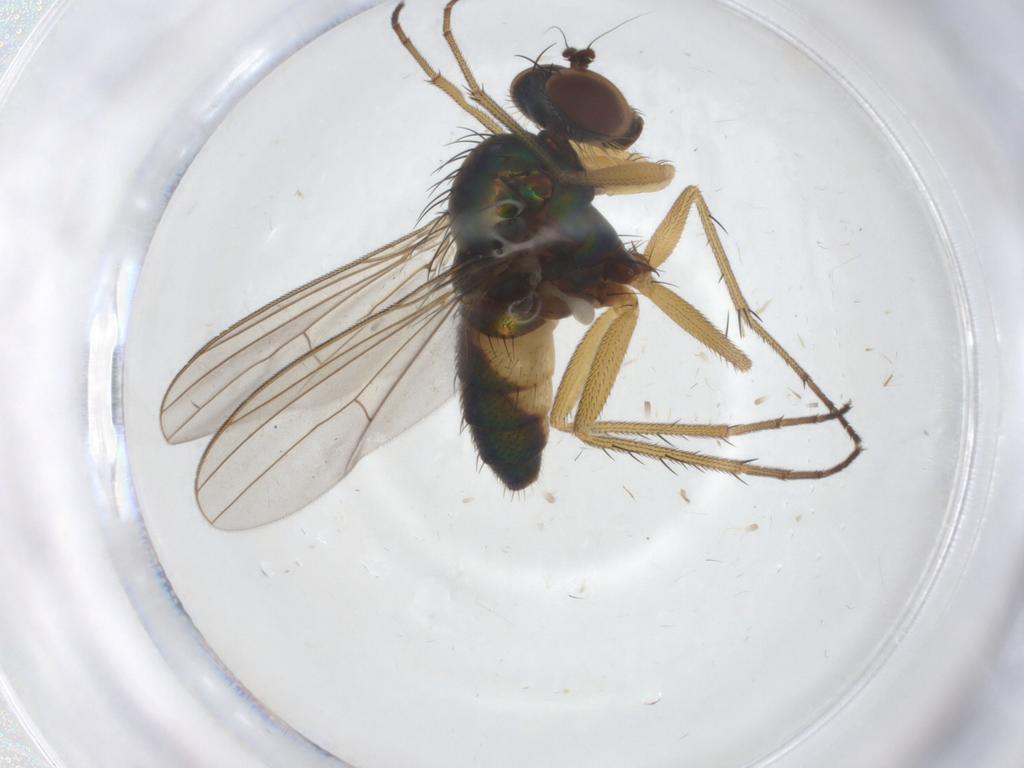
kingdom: Animalia
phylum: Arthropoda
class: Insecta
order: Diptera
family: Dolichopodidae
